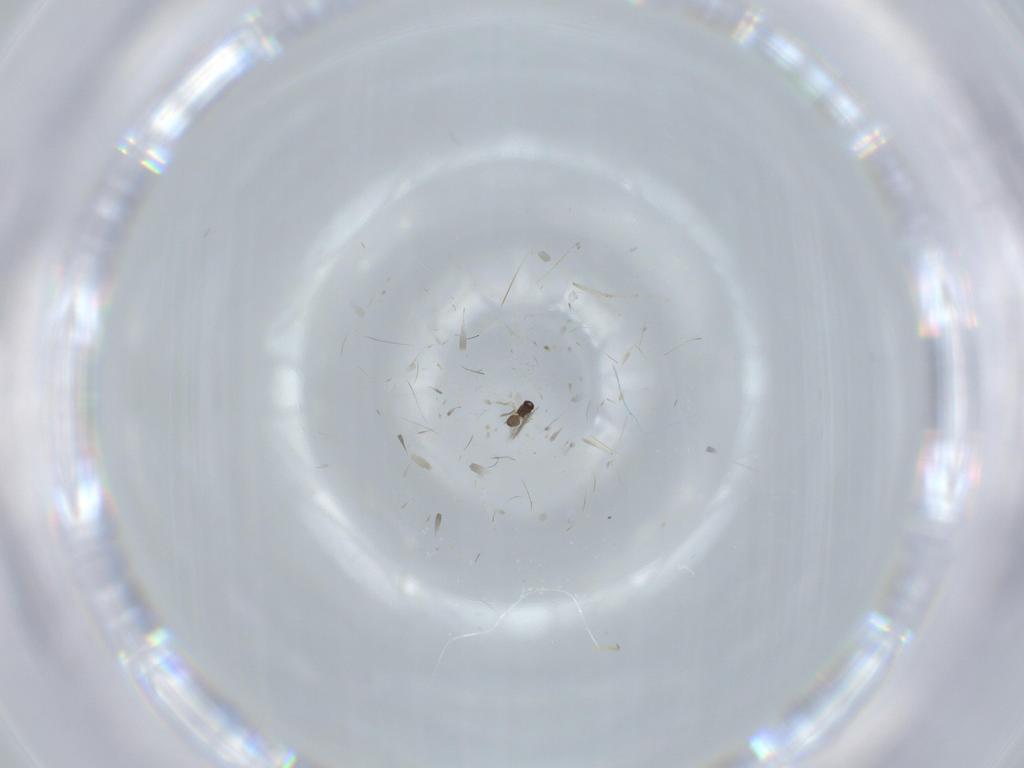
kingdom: Animalia
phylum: Arthropoda
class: Insecta
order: Hymenoptera
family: Formicidae
